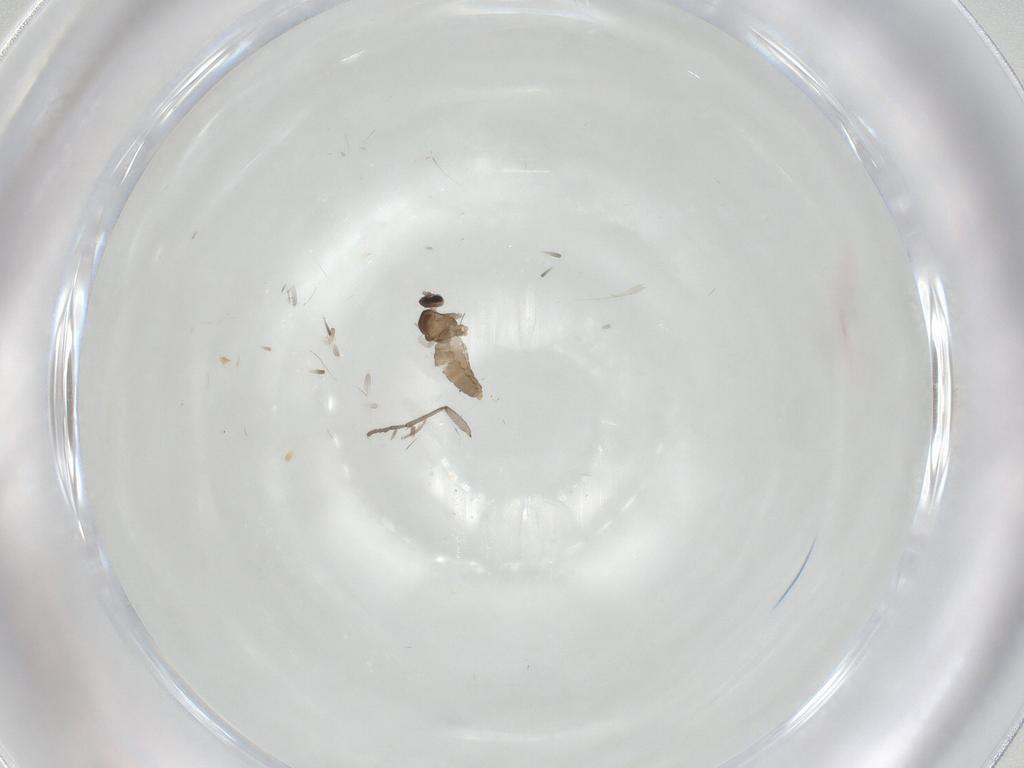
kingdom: Animalia
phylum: Arthropoda
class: Insecta
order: Diptera
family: Cecidomyiidae
